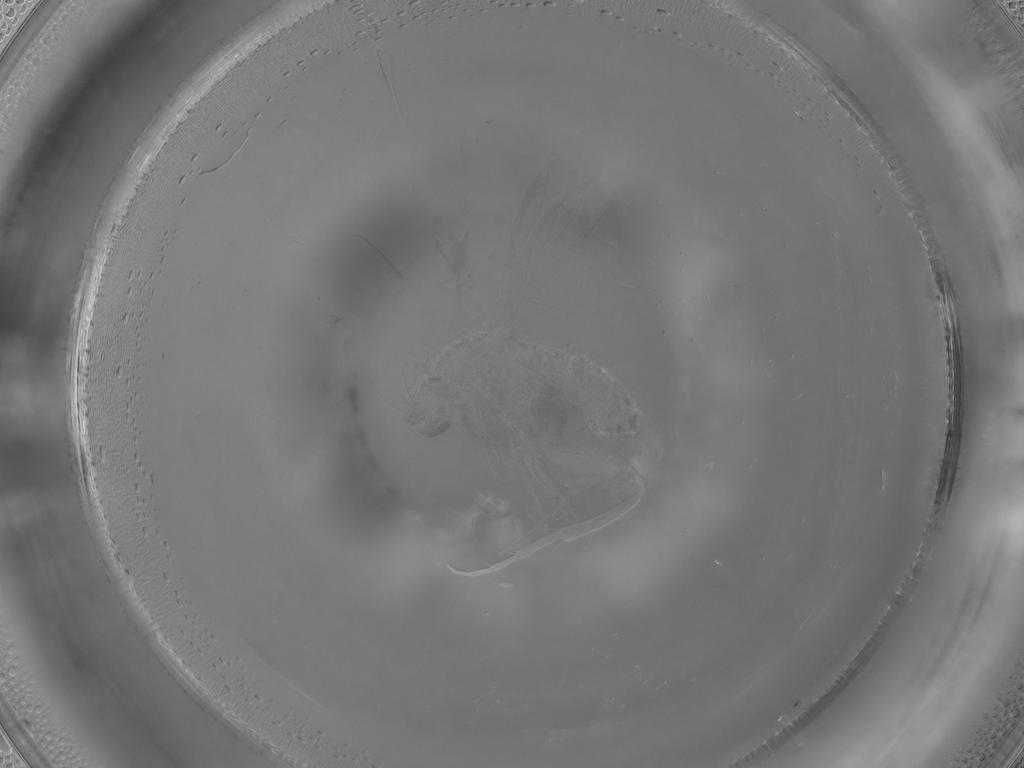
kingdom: Animalia
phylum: Arthropoda
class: Insecta
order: Diptera
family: Phoridae
